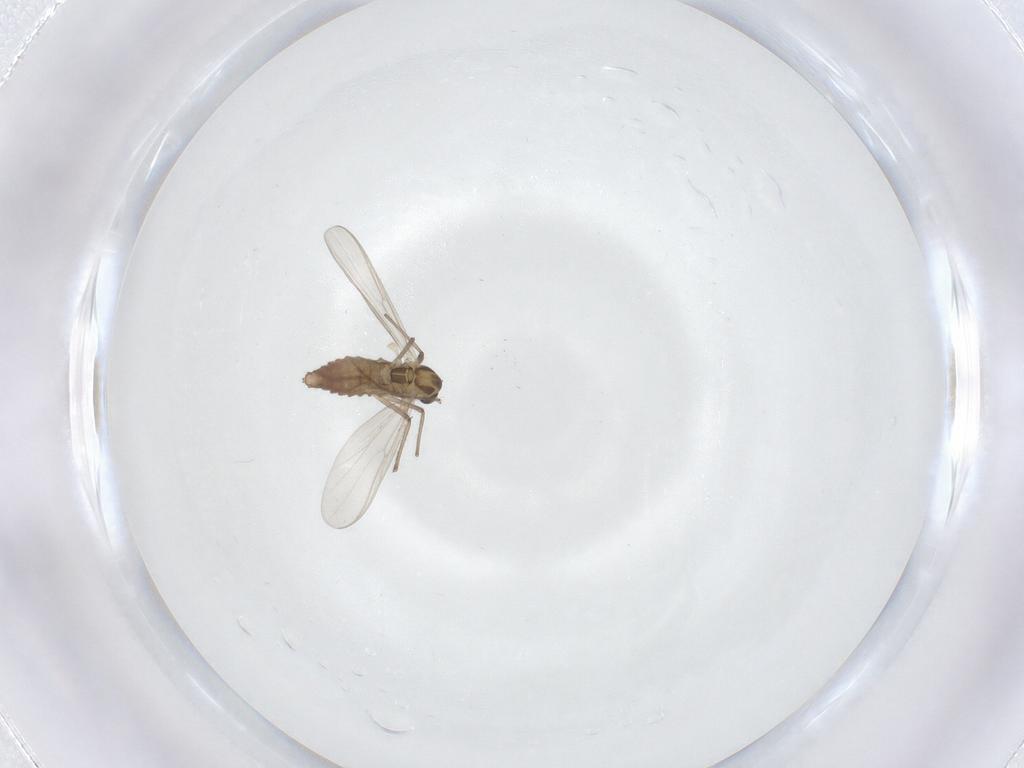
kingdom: Animalia
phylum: Arthropoda
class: Insecta
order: Diptera
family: Chironomidae
